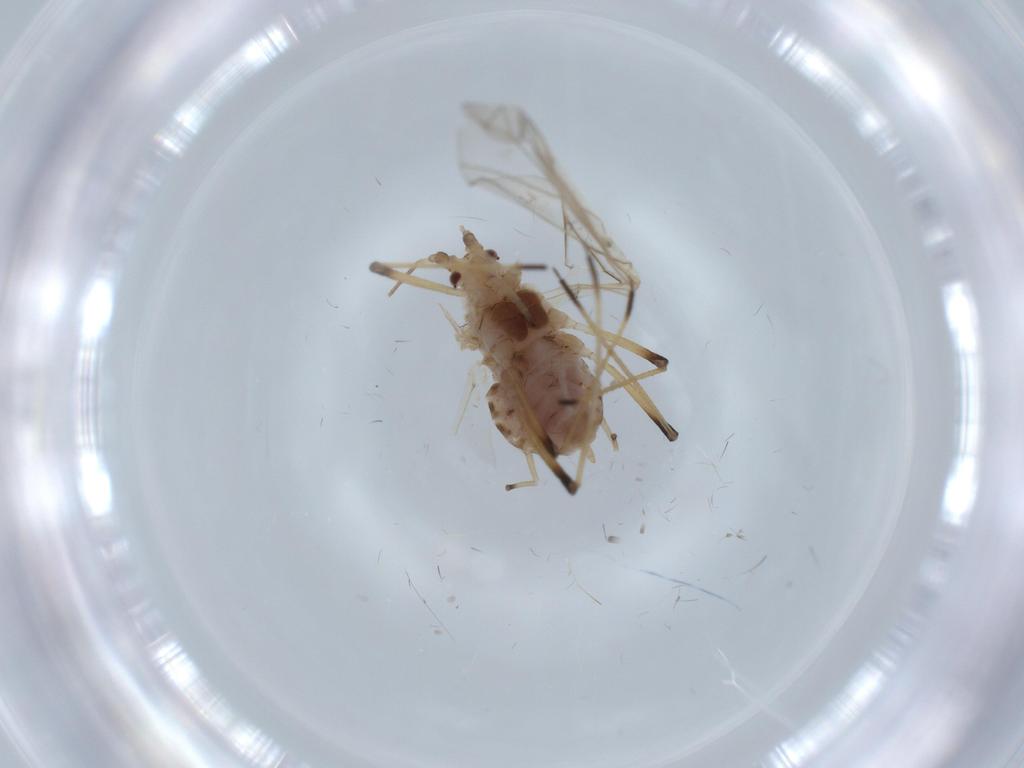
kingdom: Animalia
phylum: Arthropoda
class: Insecta
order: Hemiptera
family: Aphididae
